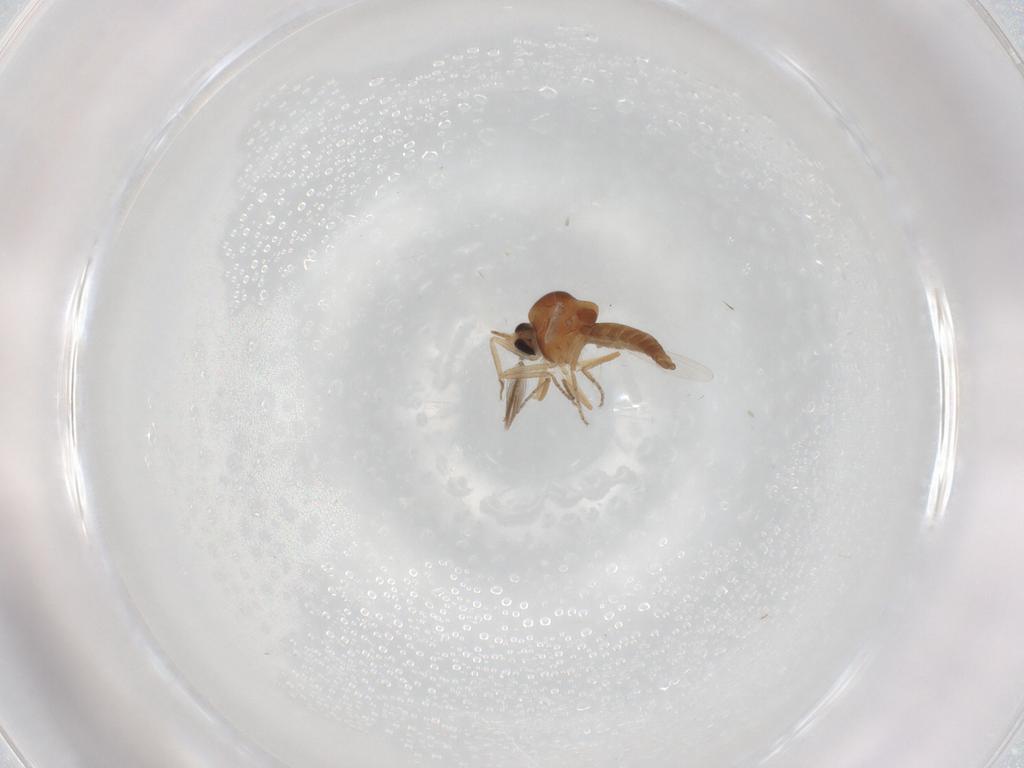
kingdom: Animalia
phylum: Arthropoda
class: Insecta
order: Diptera
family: Ceratopogonidae
